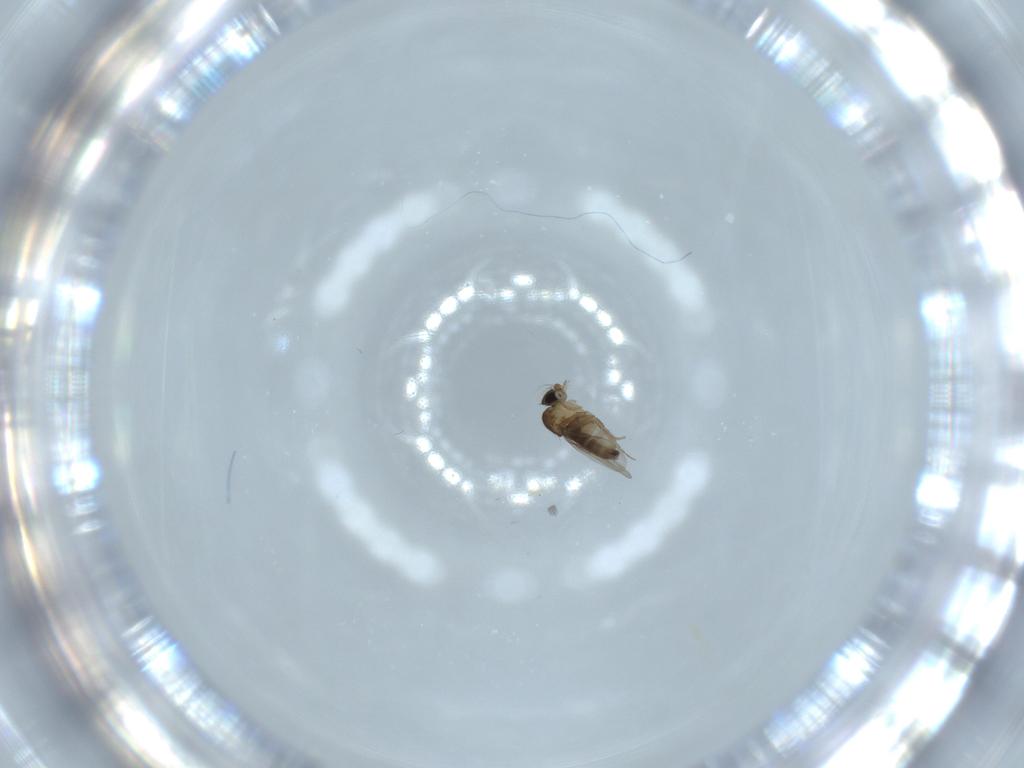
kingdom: Animalia
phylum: Arthropoda
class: Insecta
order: Diptera
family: Phoridae
